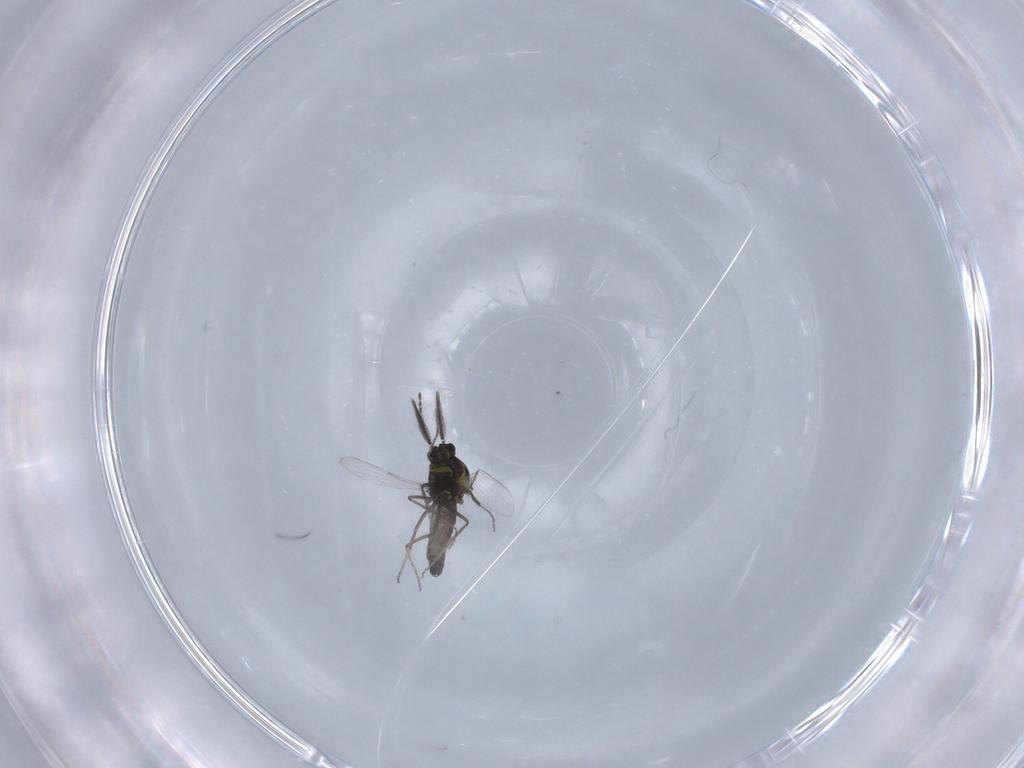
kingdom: Animalia
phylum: Arthropoda
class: Insecta
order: Diptera
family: Ceratopogonidae
